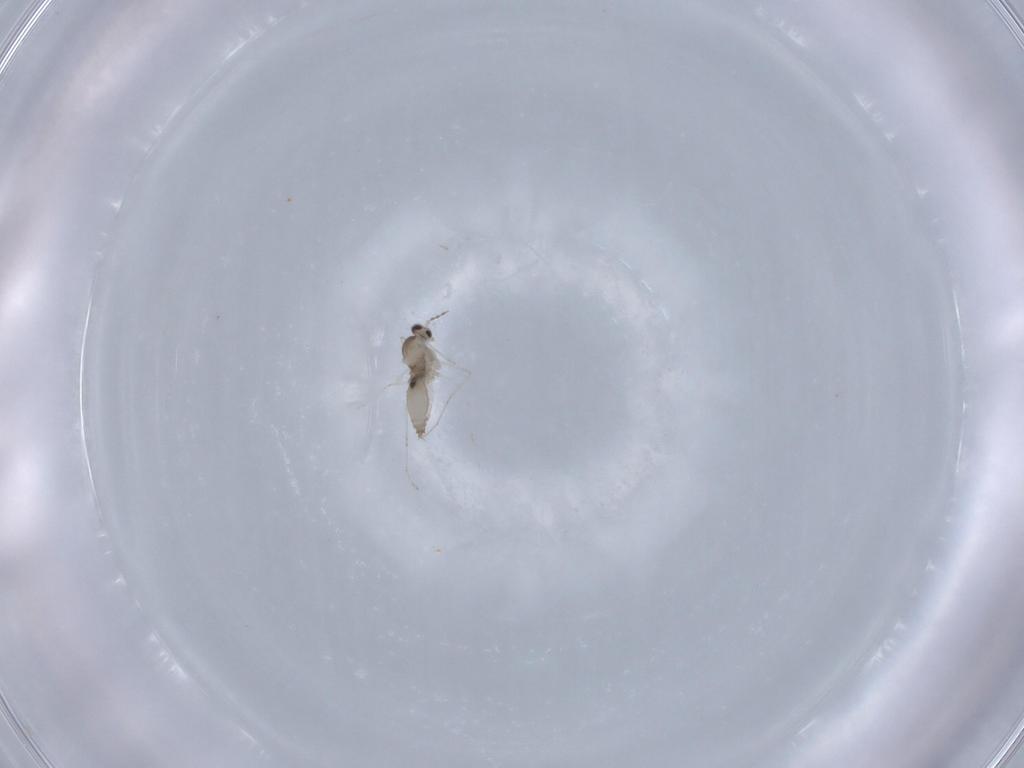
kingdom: Animalia
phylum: Arthropoda
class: Insecta
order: Diptera
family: Cecidomyiidae
